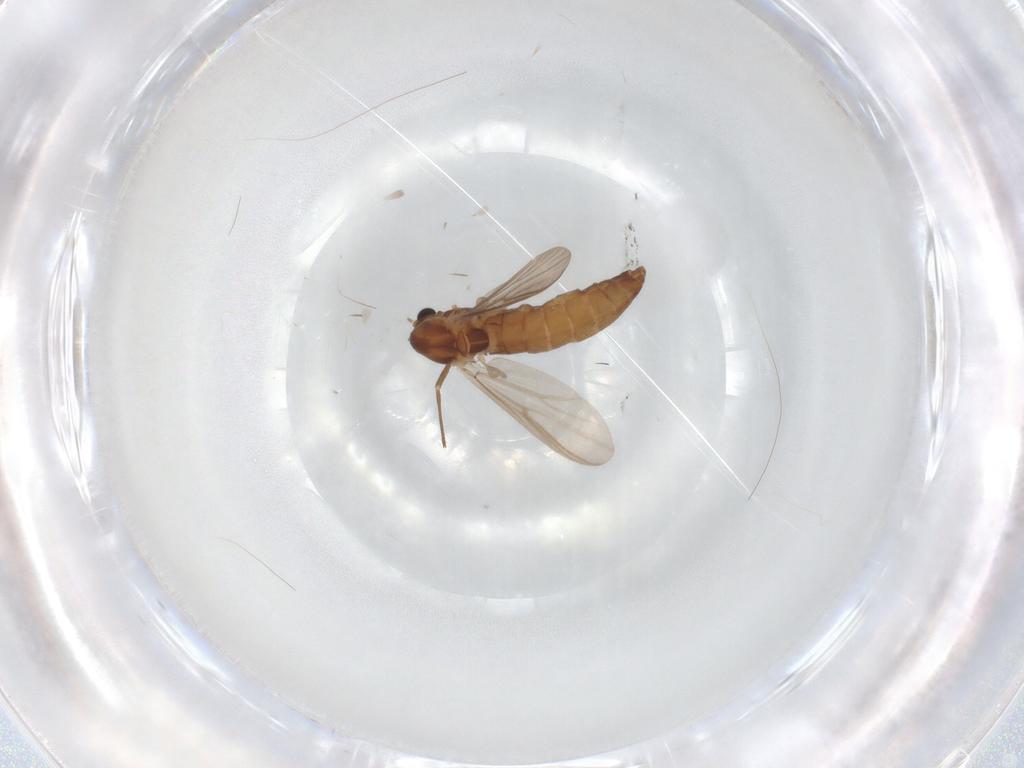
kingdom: Animalia
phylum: Arthropoda
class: Insecta
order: Diptera
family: Chironomidae
